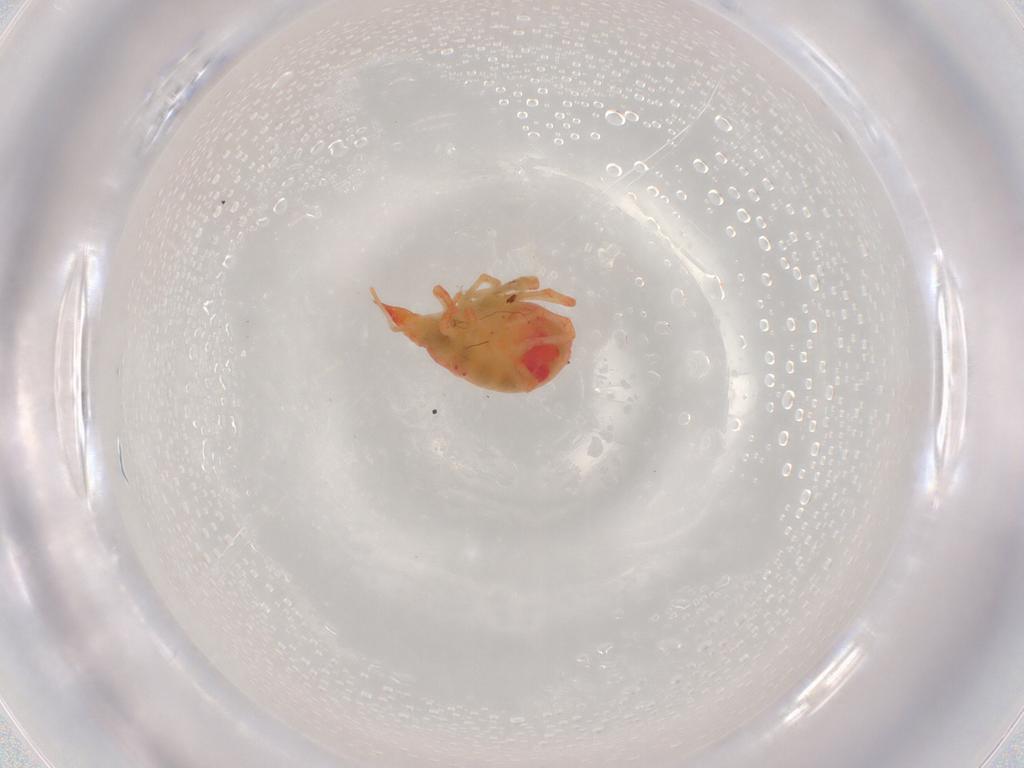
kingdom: Animalia
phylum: Arthropoda
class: Arachnida
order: Trombidiformes
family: Bdellidae
